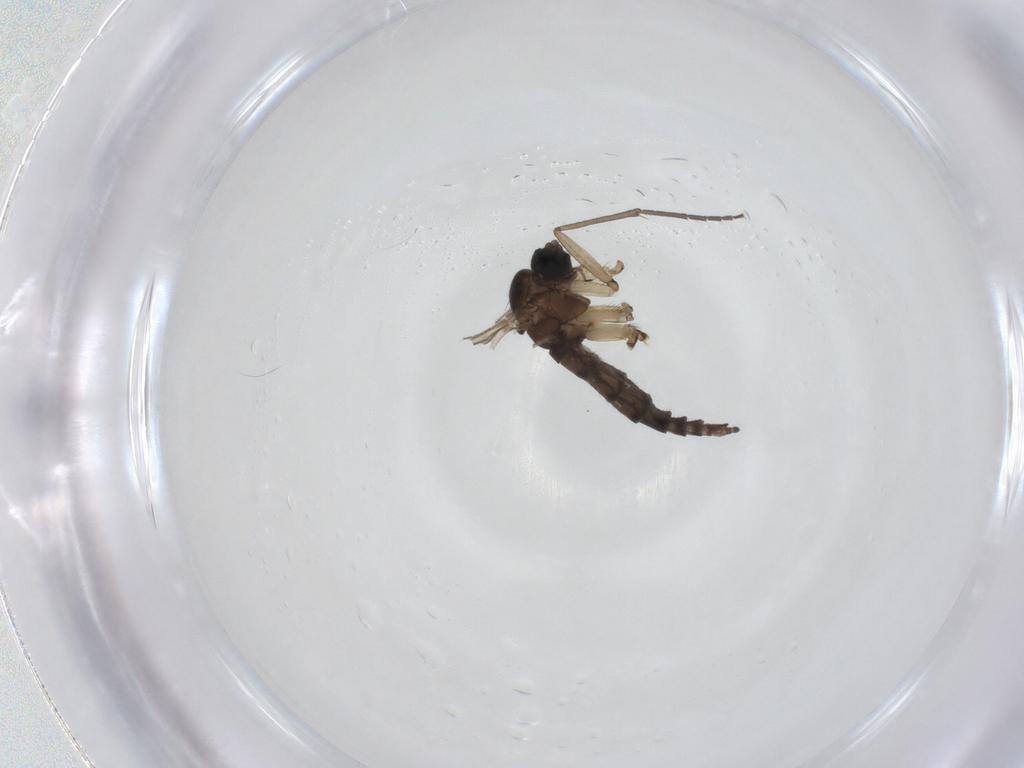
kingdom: Animalia
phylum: Arthropoda
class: Insecta
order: Diptera
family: Sciaridae
